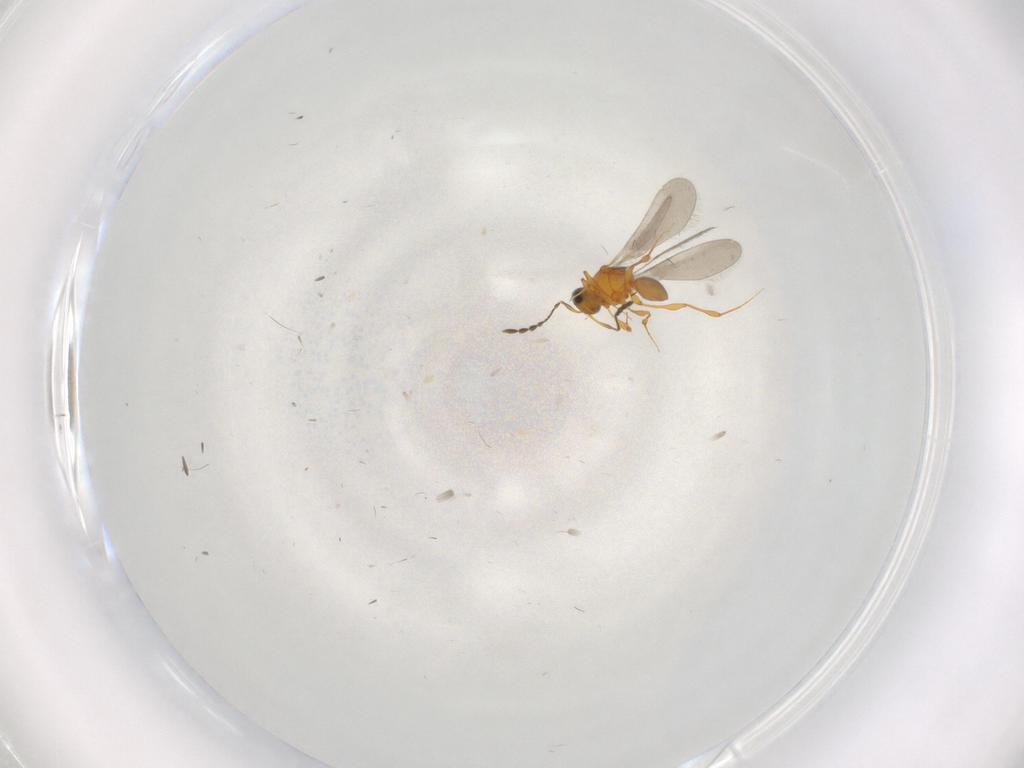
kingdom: Animalia
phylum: Arthropoda
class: Insecta
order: Hymenoptera
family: Platygastridae
